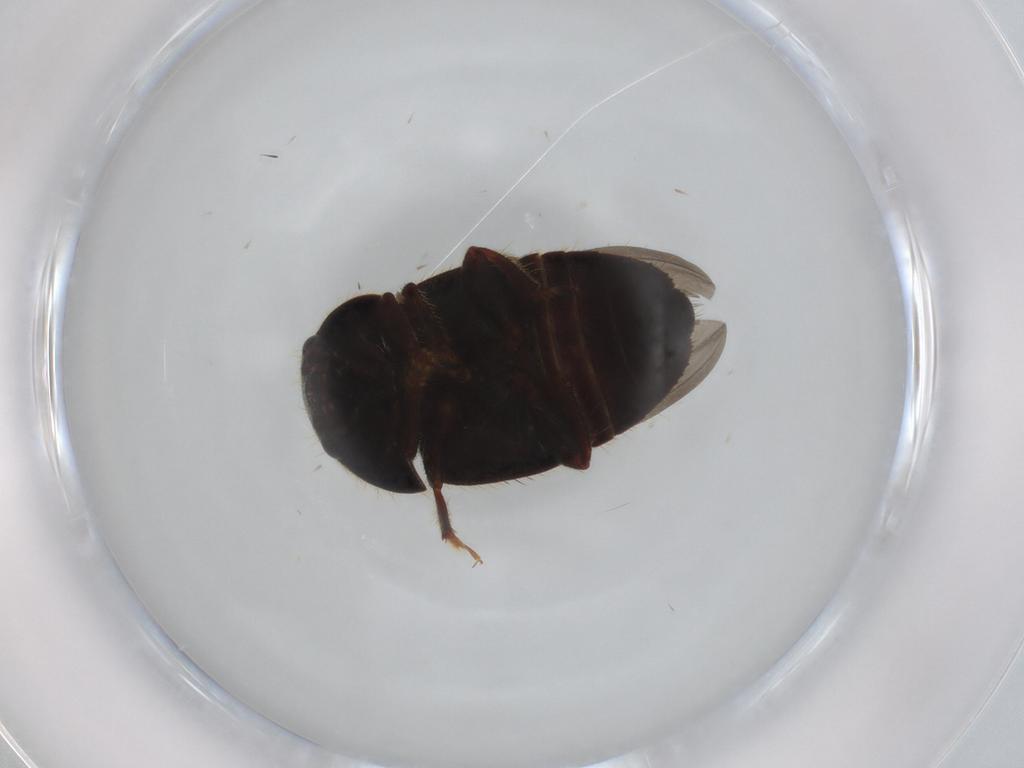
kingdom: Animalia
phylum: Arthropoda
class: Insecta
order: Coleoptera
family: Nitidulidae
